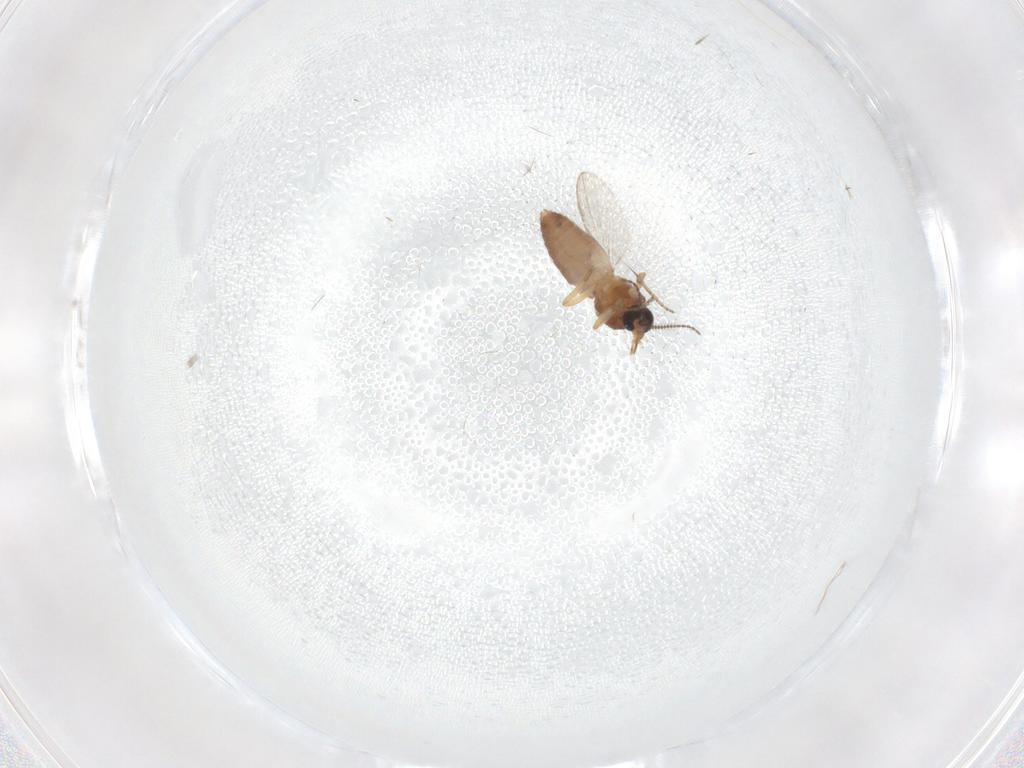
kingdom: Animalia
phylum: Arthropoda
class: Insecta
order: Diptera
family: Ceratopogonidae
